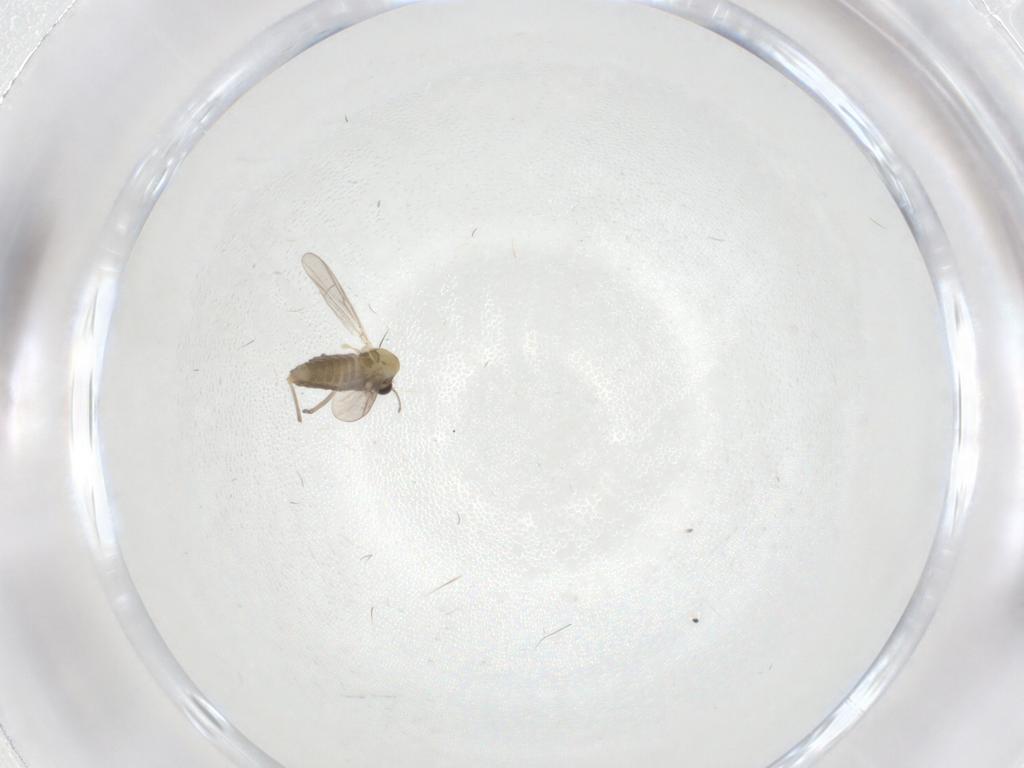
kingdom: Animalia
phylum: Arthropoda
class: Insecta
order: Diptera
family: Chironomidae
